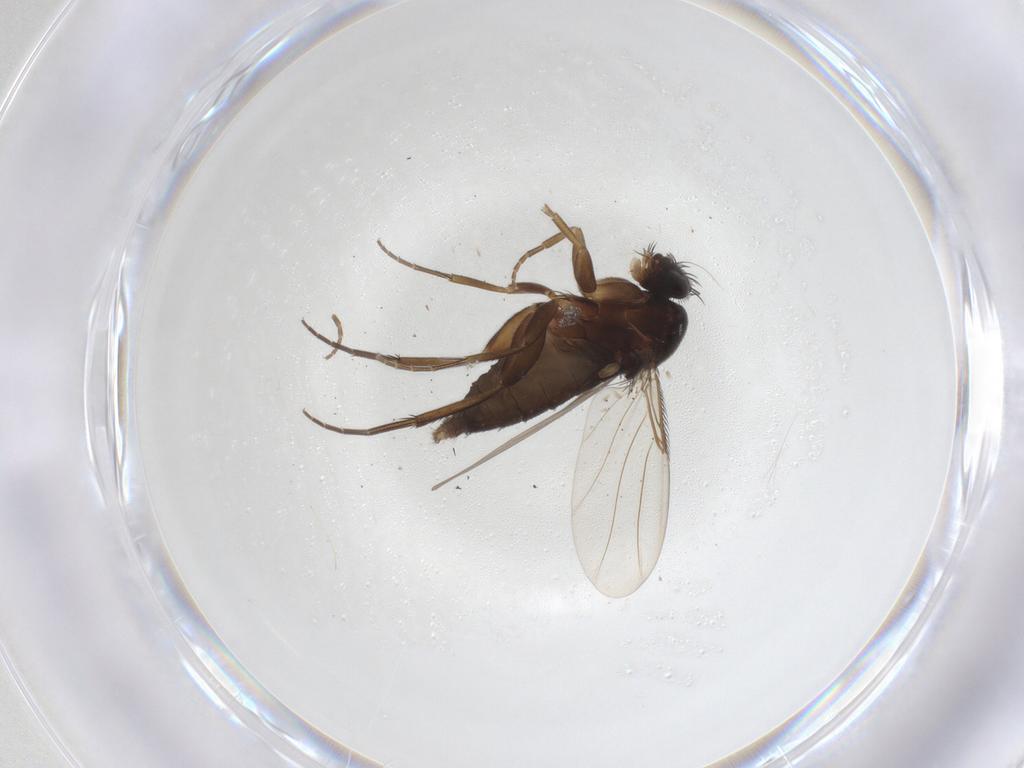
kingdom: Animalia
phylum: Arthropoda
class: Insecta
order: Diptera
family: Phoridae
